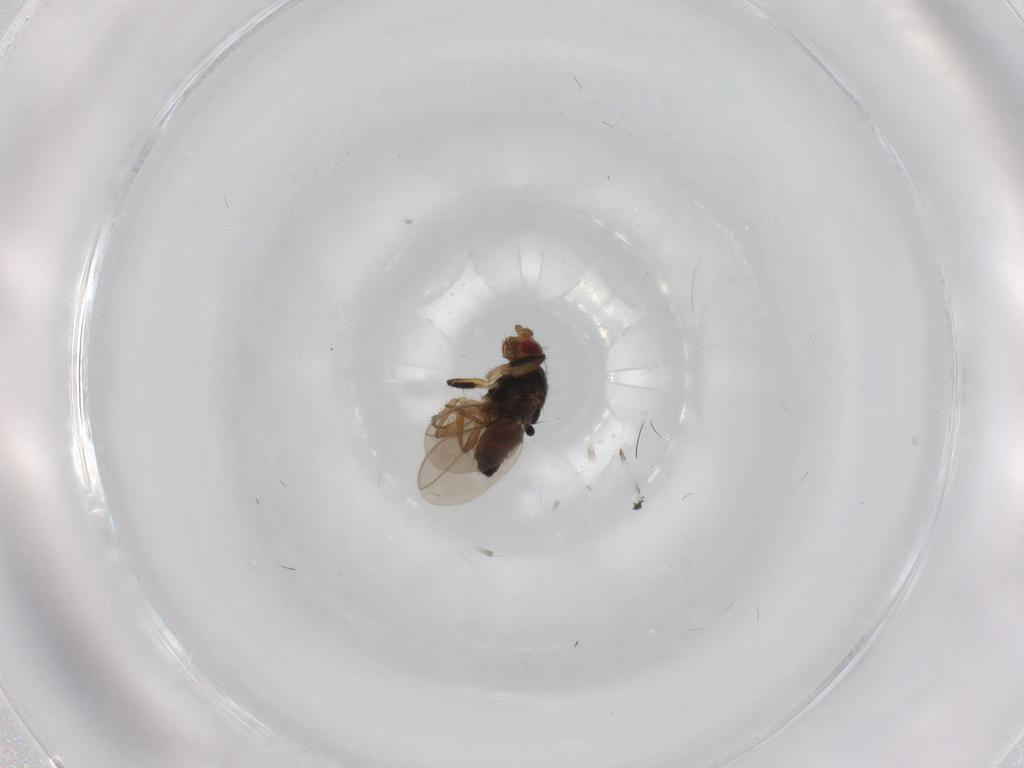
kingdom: Animalia
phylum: Arthropoda
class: Insecta
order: Diptera
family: Sphaeroceridae
